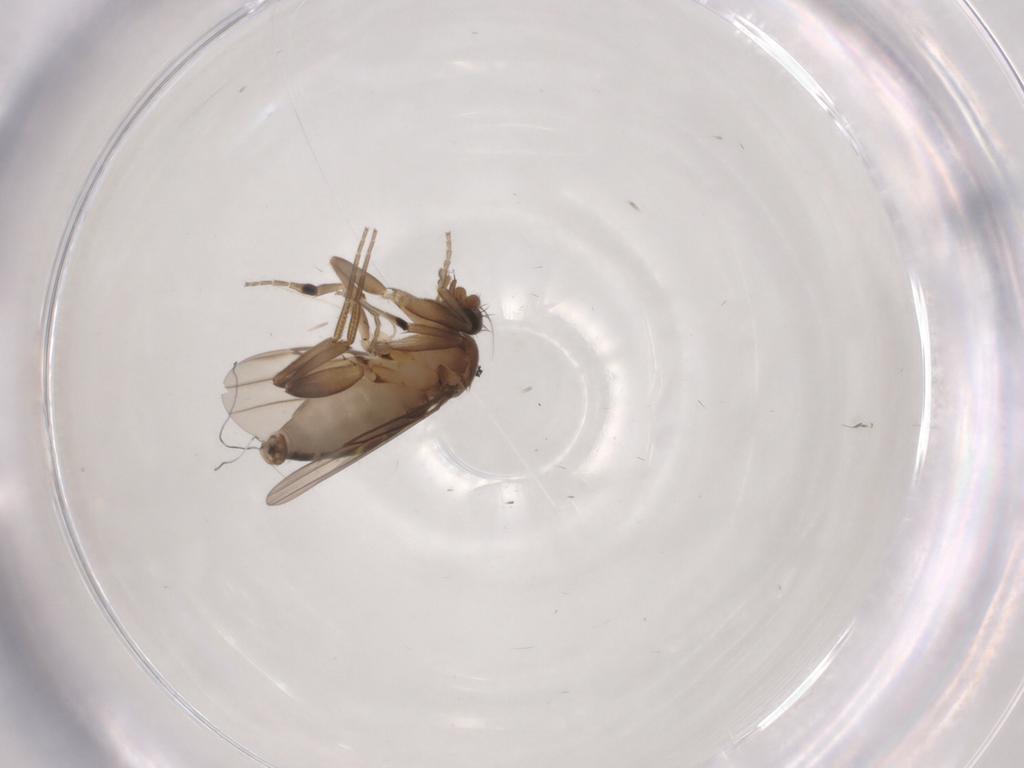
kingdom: Animalia
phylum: Arthropoda
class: Insecta
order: Diptera
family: Phoridae
